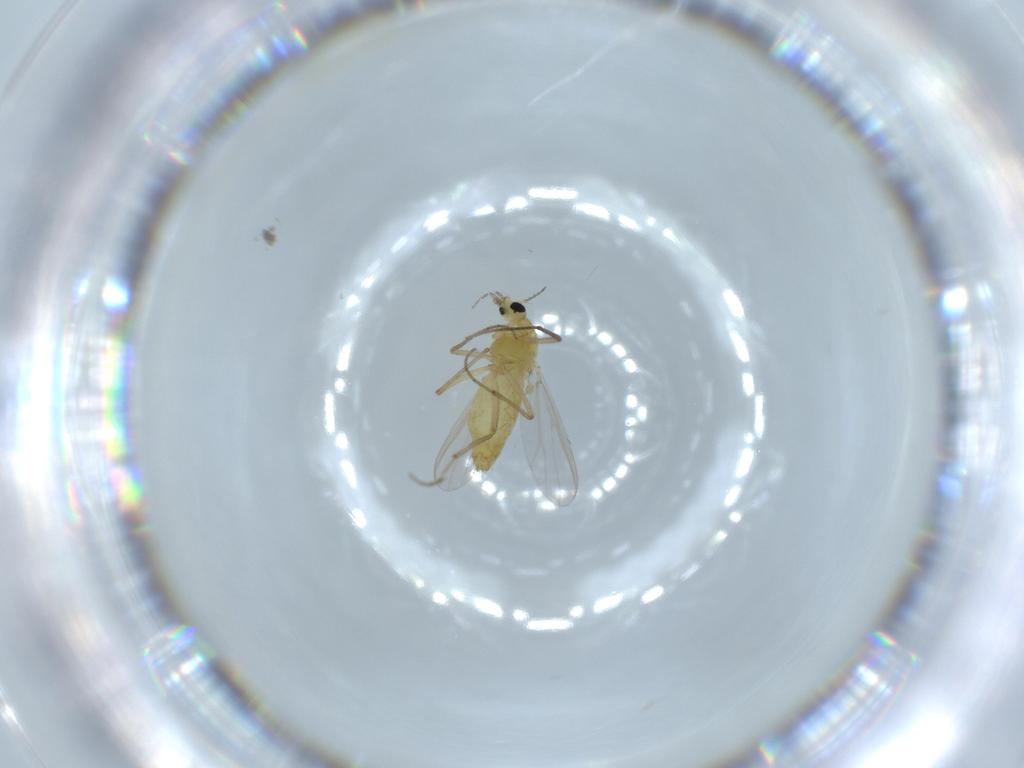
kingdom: Animalia
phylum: Arthropoda
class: Insecta
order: Diptera
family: Chironomidae
